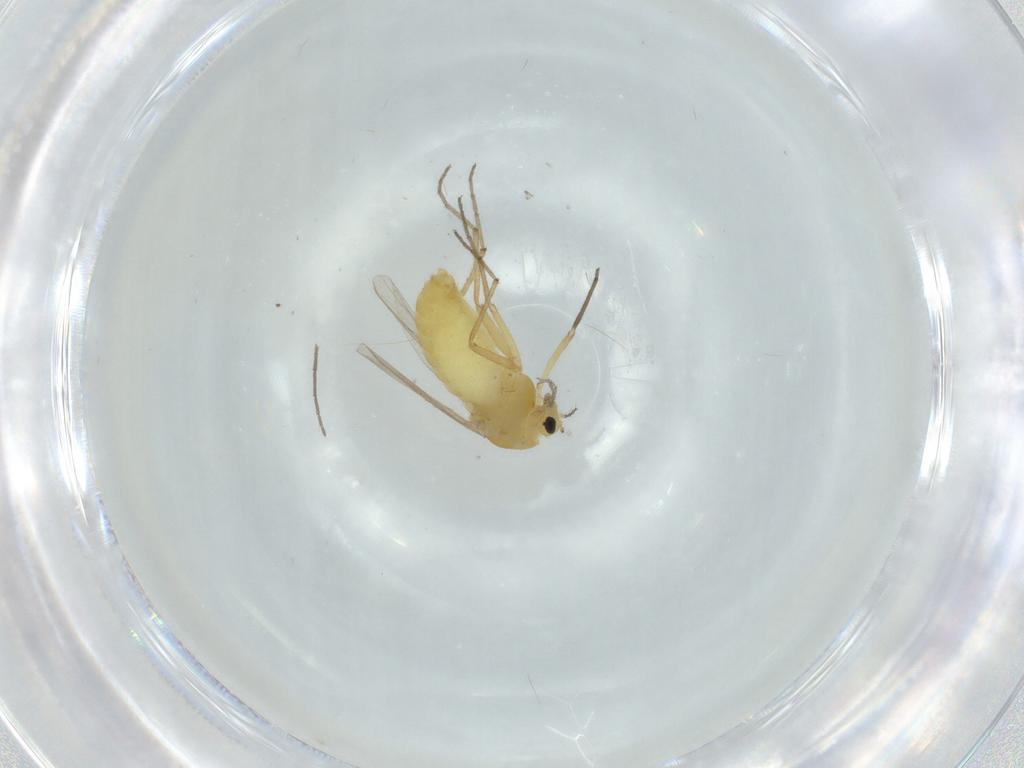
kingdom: Animalia
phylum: Arthropoda
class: Insecta
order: Diptera
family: Chironomidae
